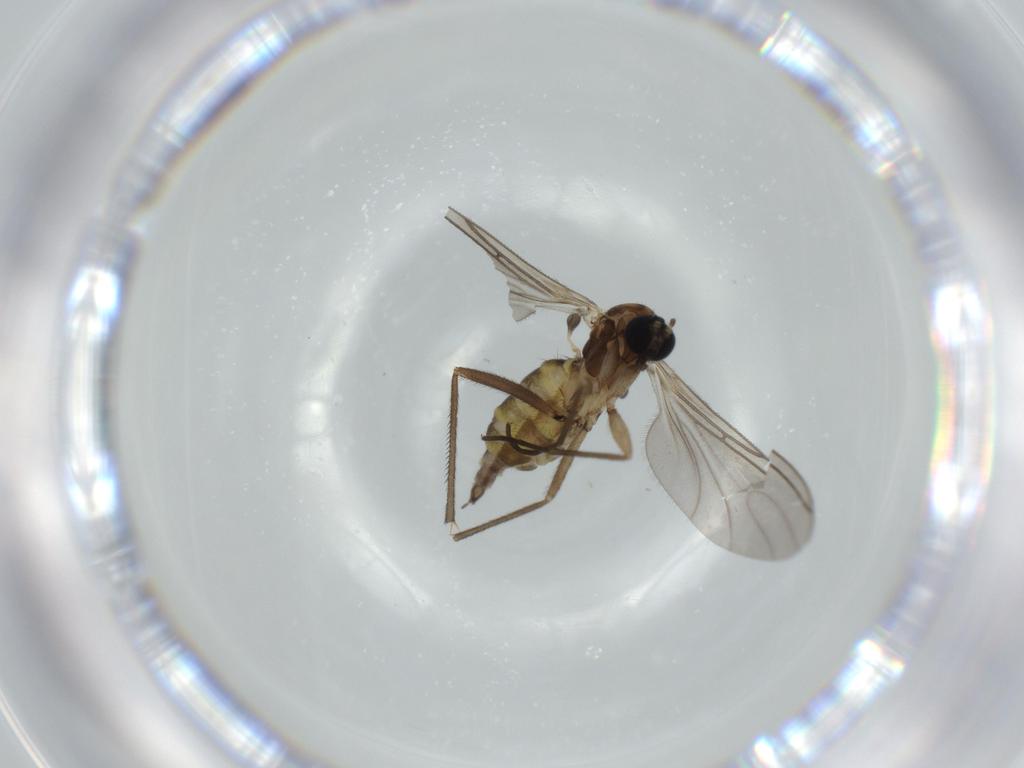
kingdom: Animalia
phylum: Arthropoda
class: Insecta
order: Diptera
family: Sciaridae
